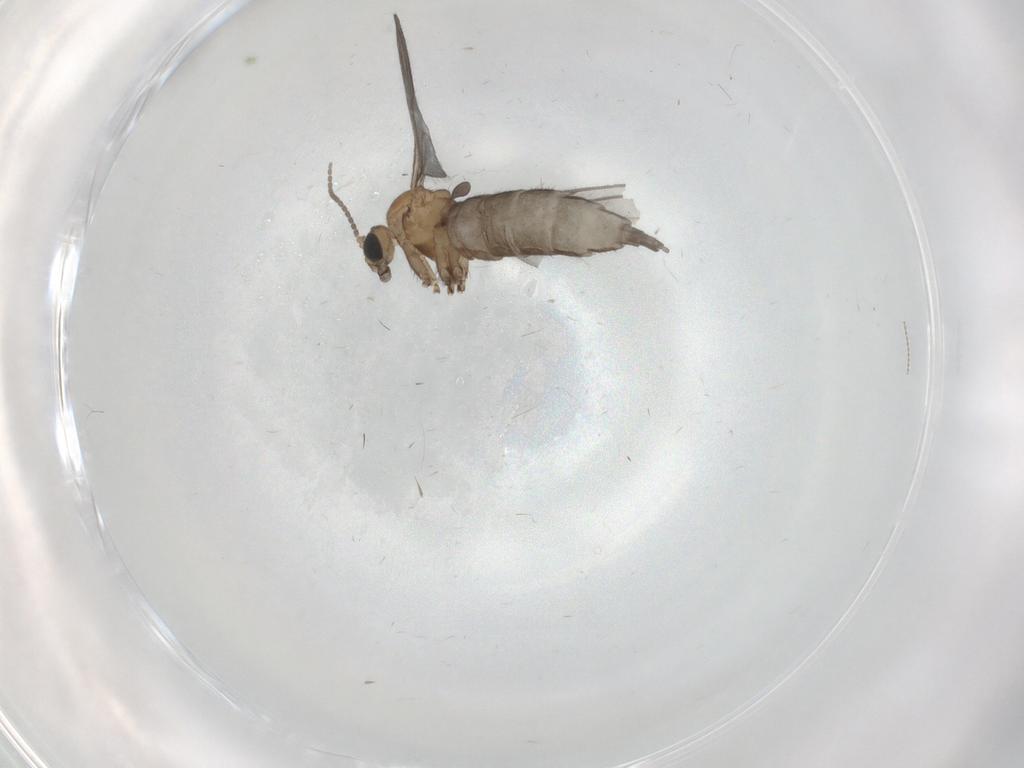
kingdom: Animalia
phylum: Arthropoda
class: Insecta
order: Diptera
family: Sciaridae
